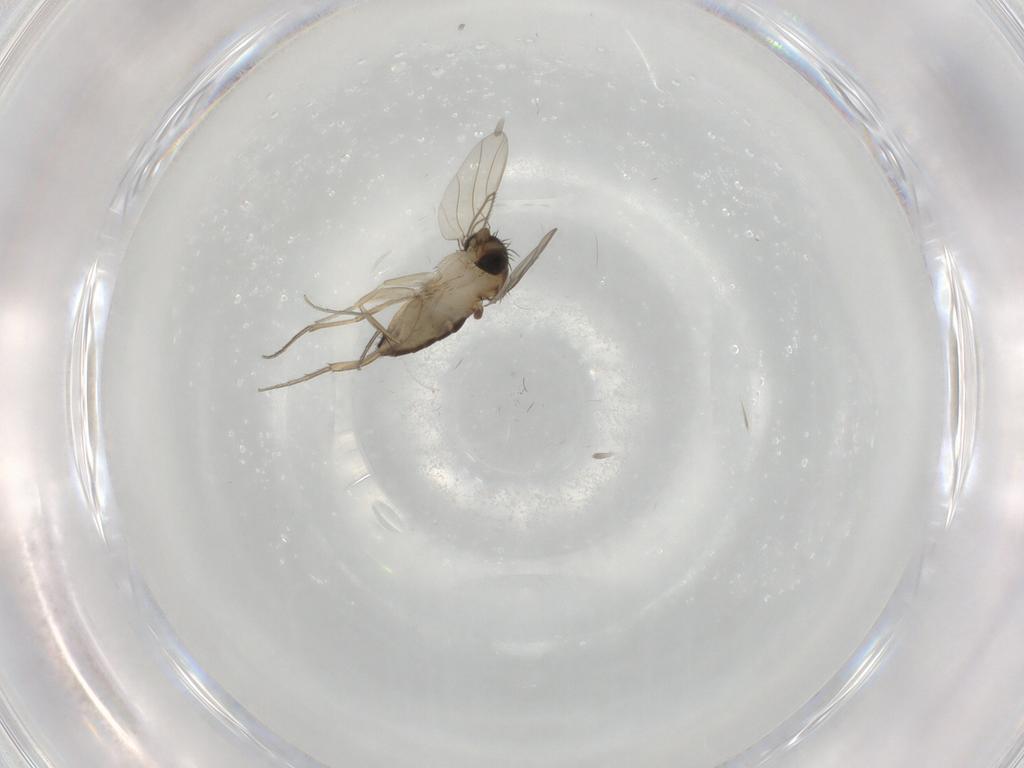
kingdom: Animalia
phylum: Arthropoda
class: Insecta
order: Diptera
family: Phoridae
